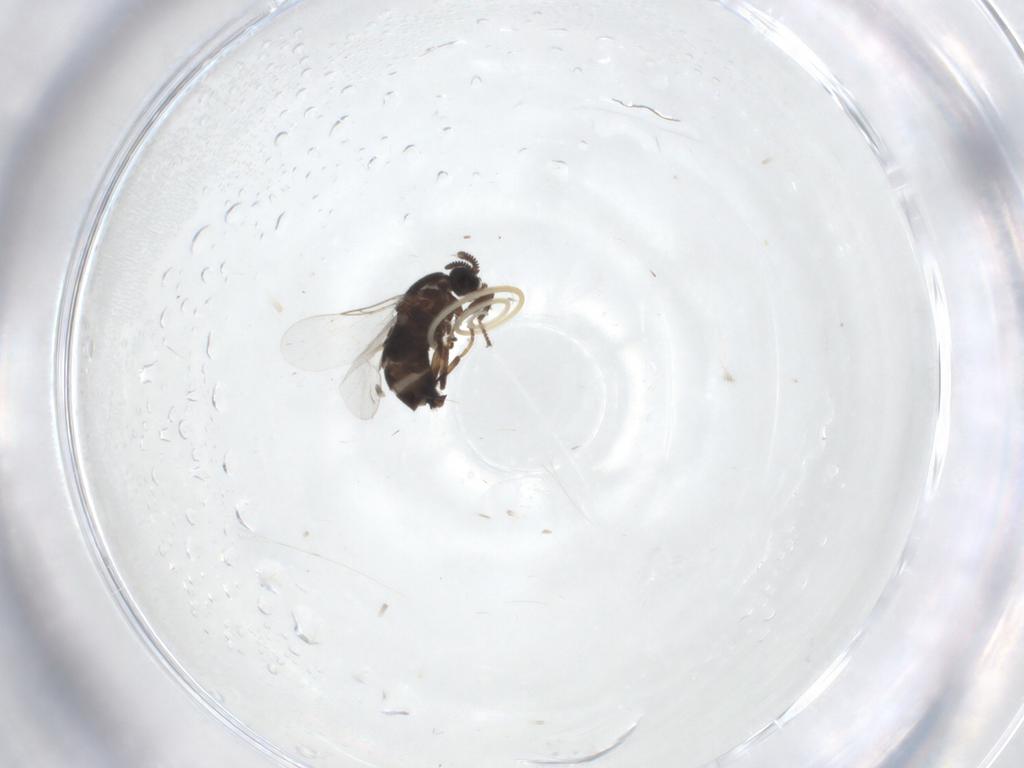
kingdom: Animalia
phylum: Arthropoda
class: Insecta
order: Diptera
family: Scatopsidae
